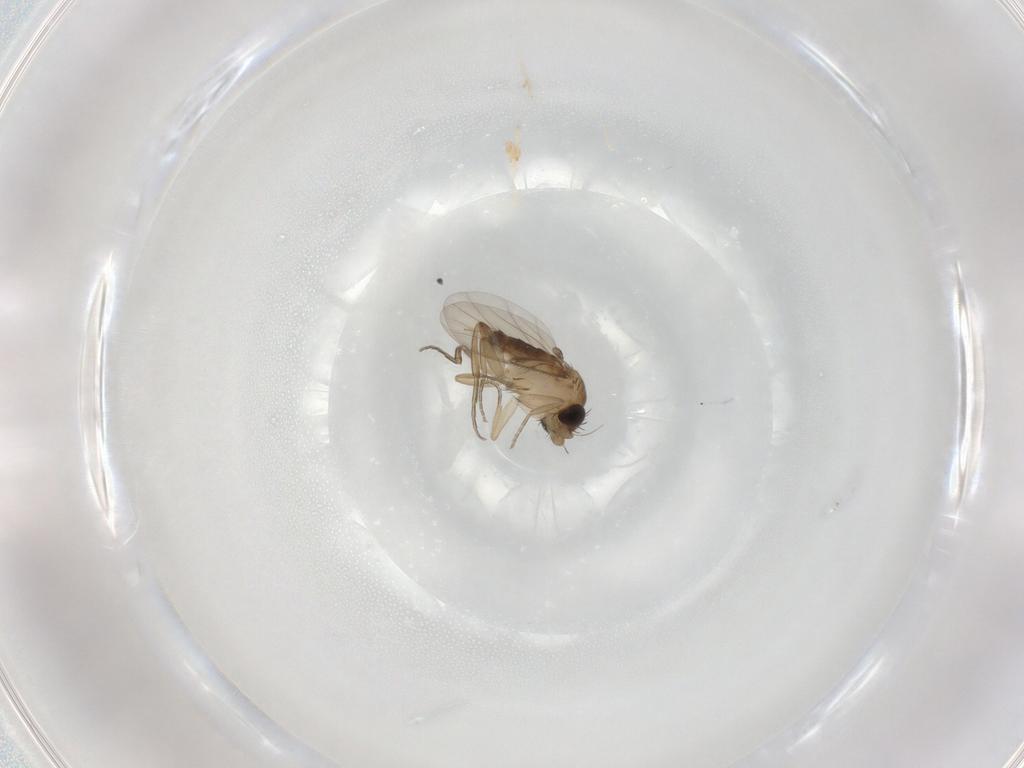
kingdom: Animalia
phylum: Arthropoda
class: Insecta
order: Diptera
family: Phoridae
